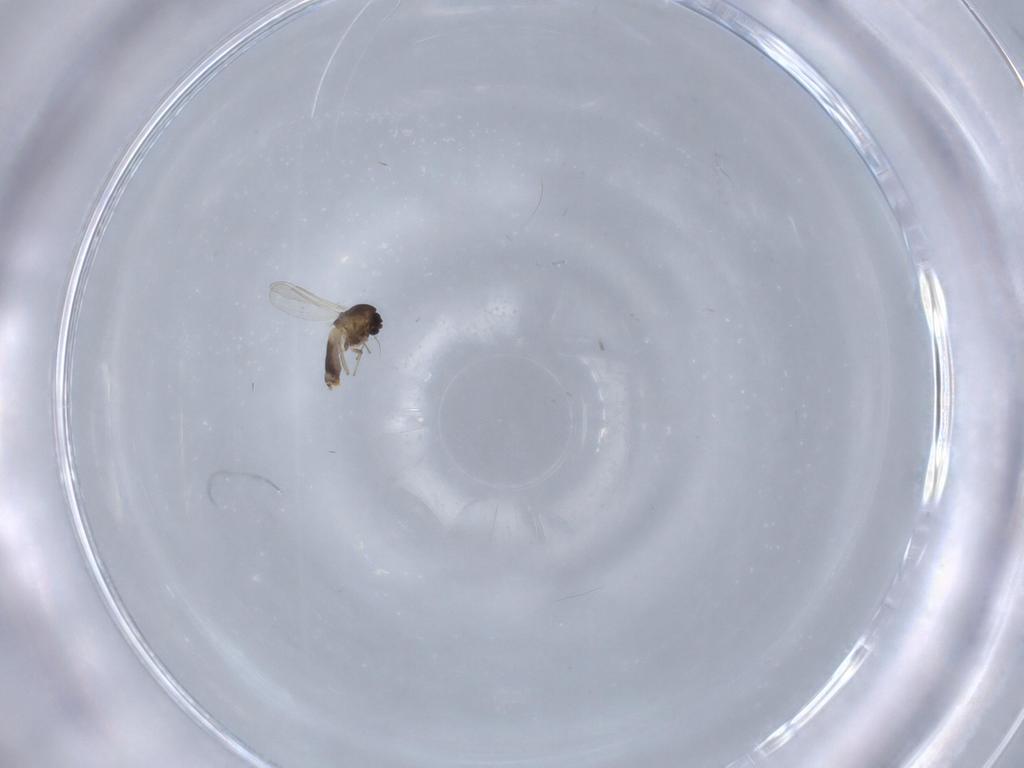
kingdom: Animalia
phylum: Arthropoda
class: Insecta
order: Diptera
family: Chironomidae
